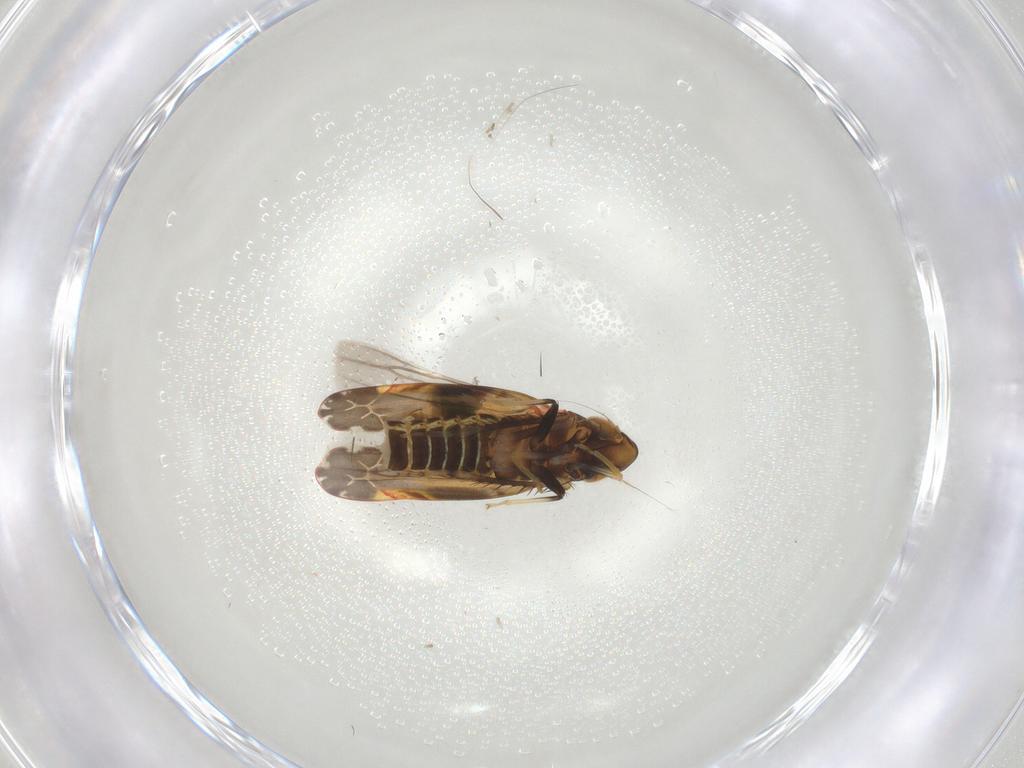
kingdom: Animalia
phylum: Arthropoda
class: Insecta
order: Hemiptera
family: Cicadellidae
